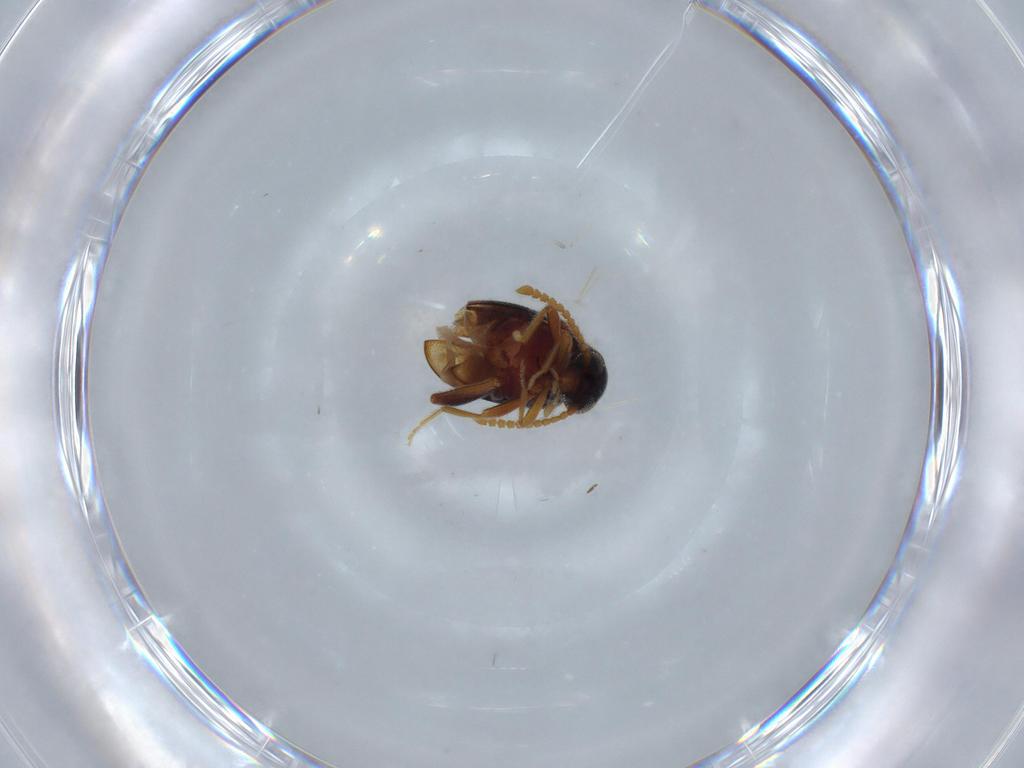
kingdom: Animalia
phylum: Arthropoda
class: Insecta
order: Coleoptera
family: Aderidae
